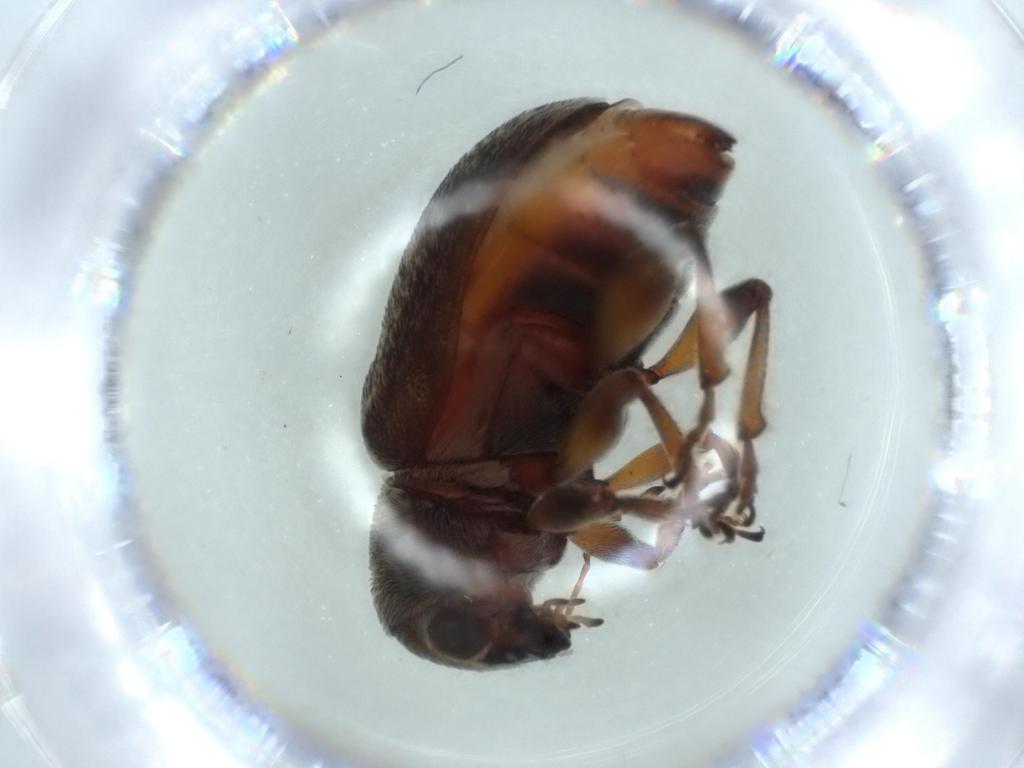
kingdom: Animalia
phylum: Arthropoda
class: Insecta
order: Coleoptera
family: Chrysomelidae
